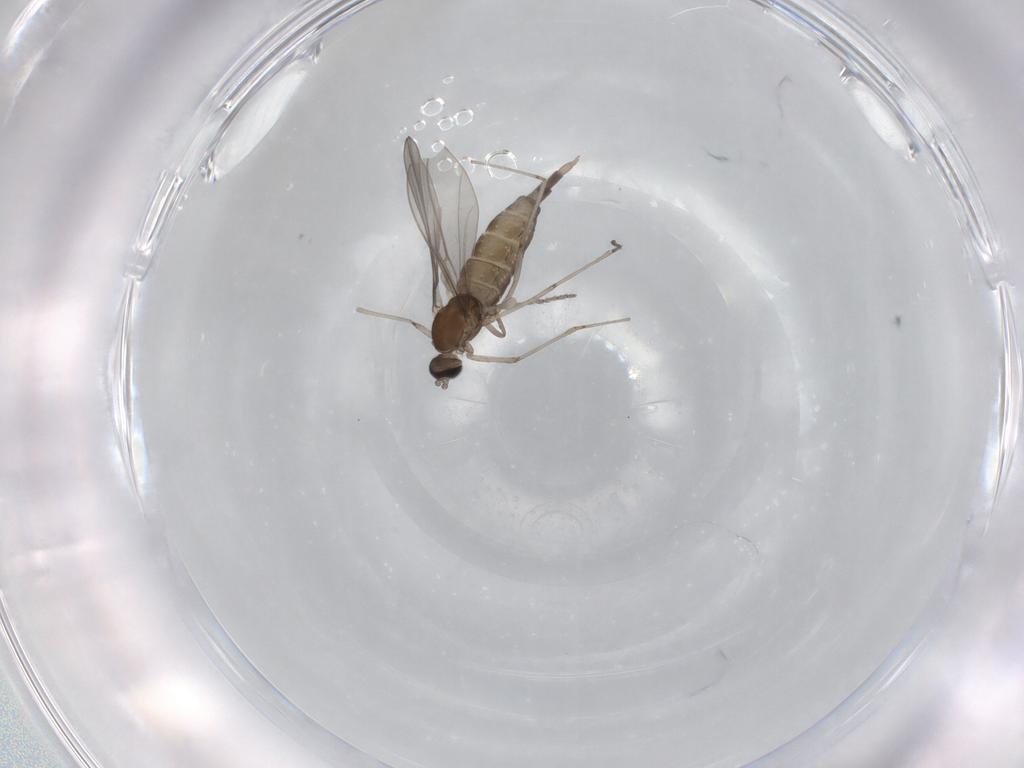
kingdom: Animalia
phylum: Arthropoda
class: Insecta
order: Diptera
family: Cecidomyiidae
